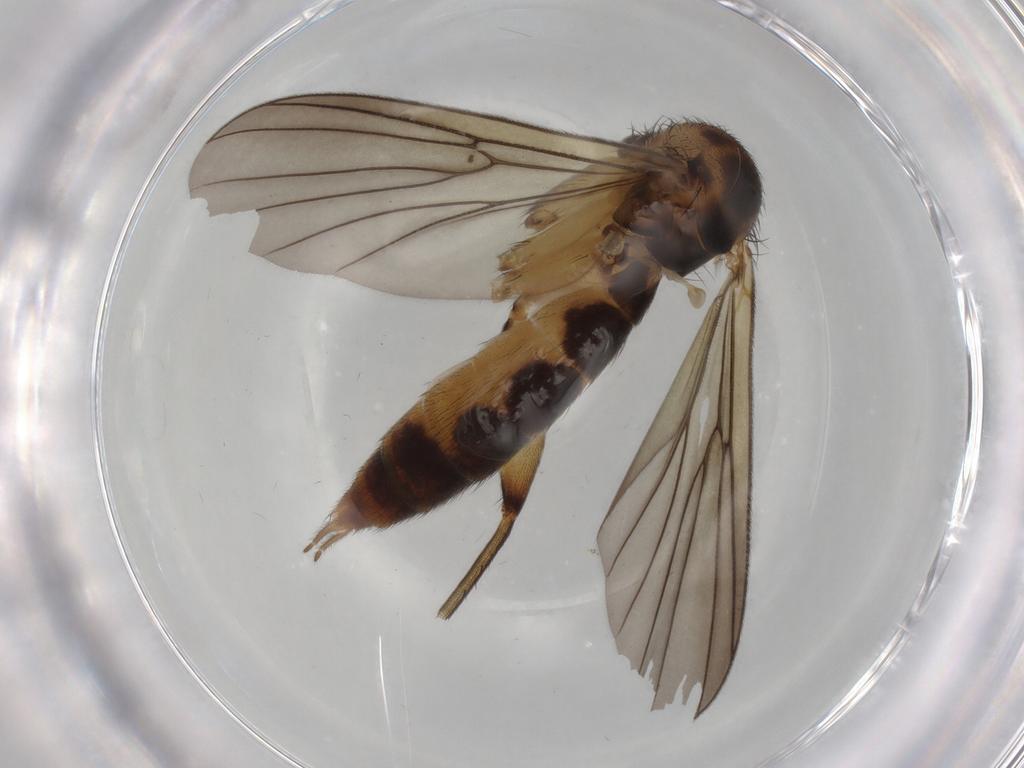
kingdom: Animalia
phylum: Arthropoda
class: Insecta
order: Diptera
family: Mycetophilidae
